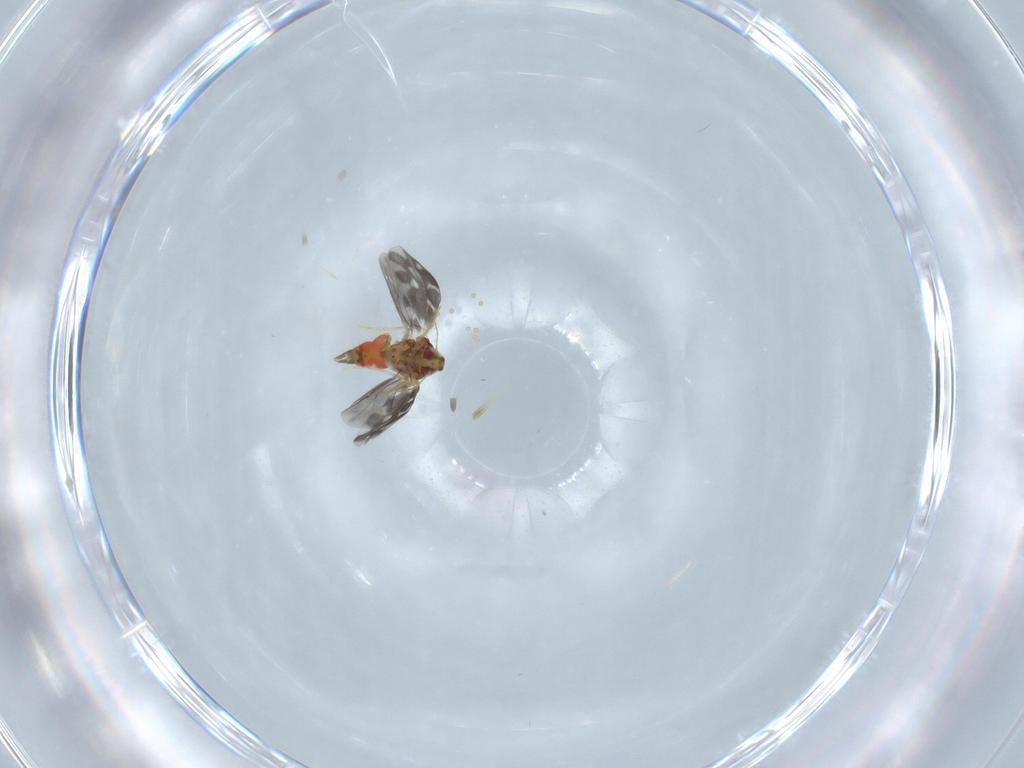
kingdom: Animalia
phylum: Arthropoda
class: Insecta
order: Hemiptera
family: Aleyrodidae
